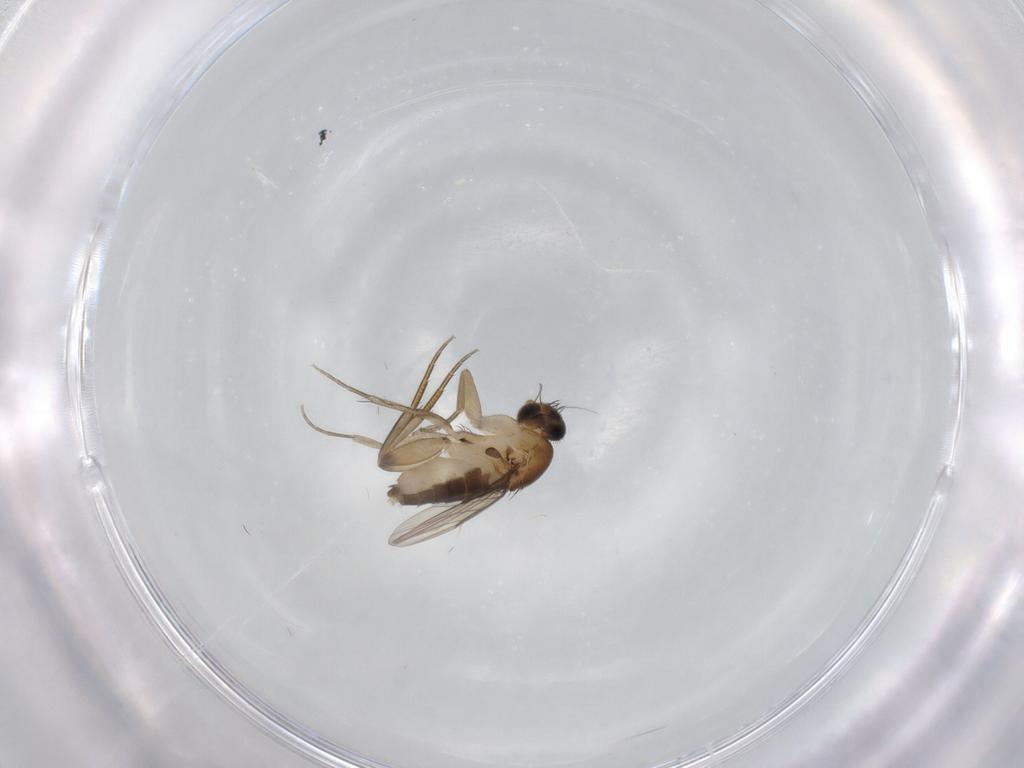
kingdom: Animalia
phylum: Arthropoda
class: Insecta
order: Diptera
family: Phoridae
